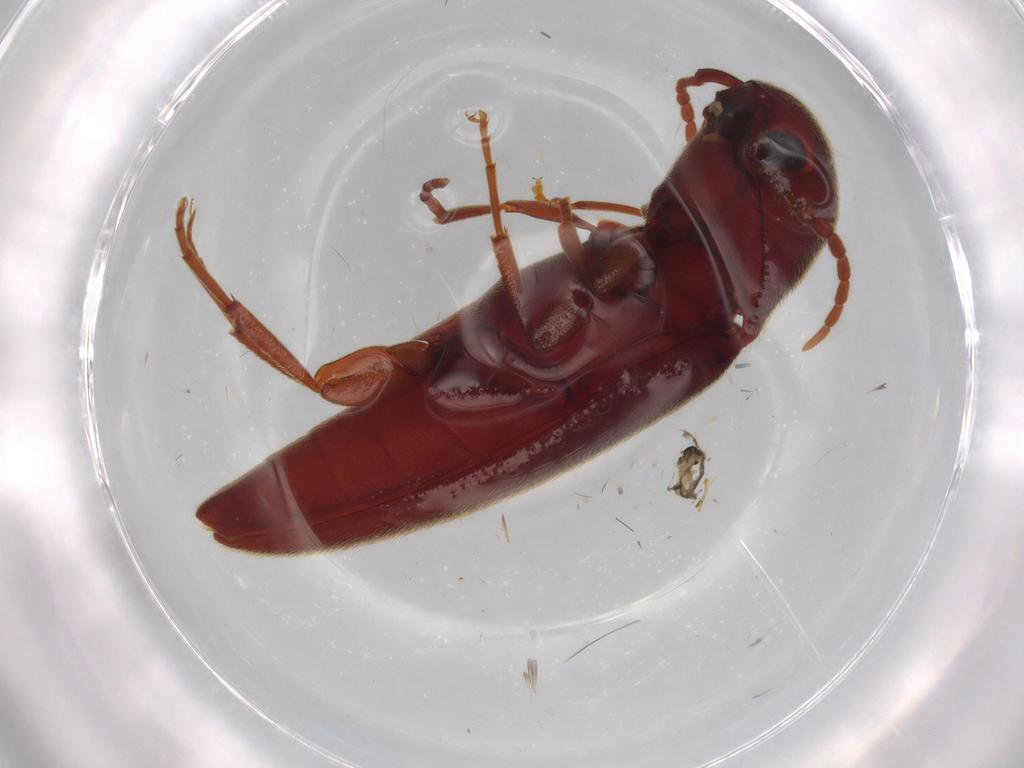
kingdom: Animalia
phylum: Arthropoda
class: Insecta
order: Coleoptera
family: Eucnemidae
